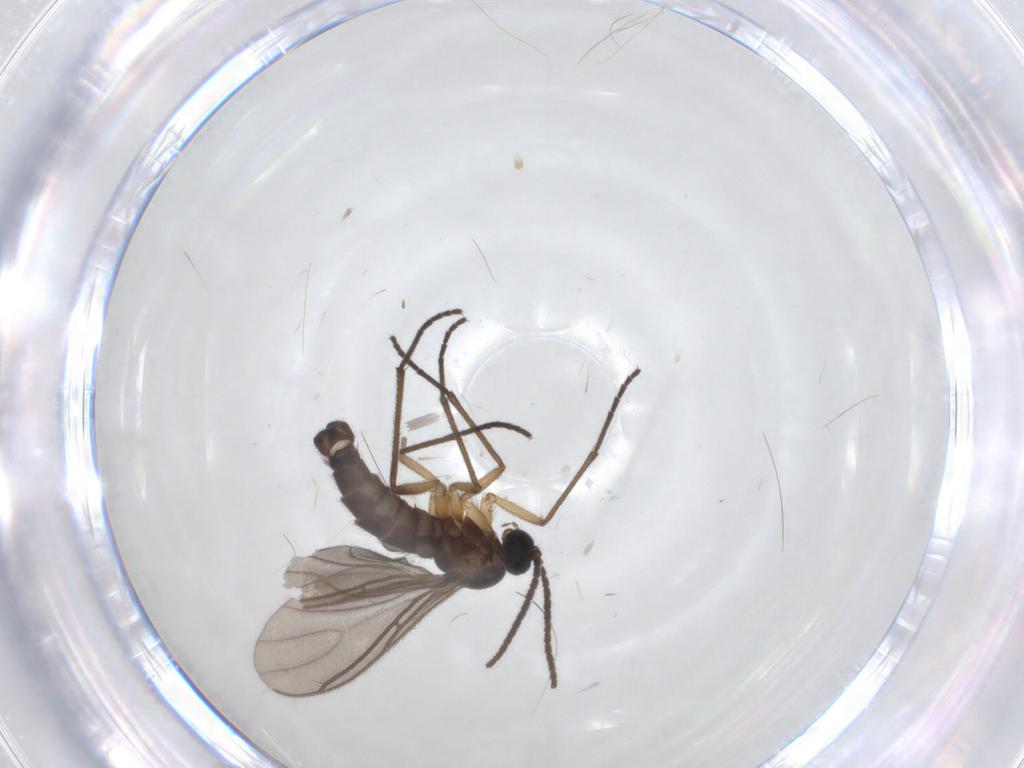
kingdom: Animalia
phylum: Arthropoda
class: Insecta
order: Diptera
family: Sciaridae
